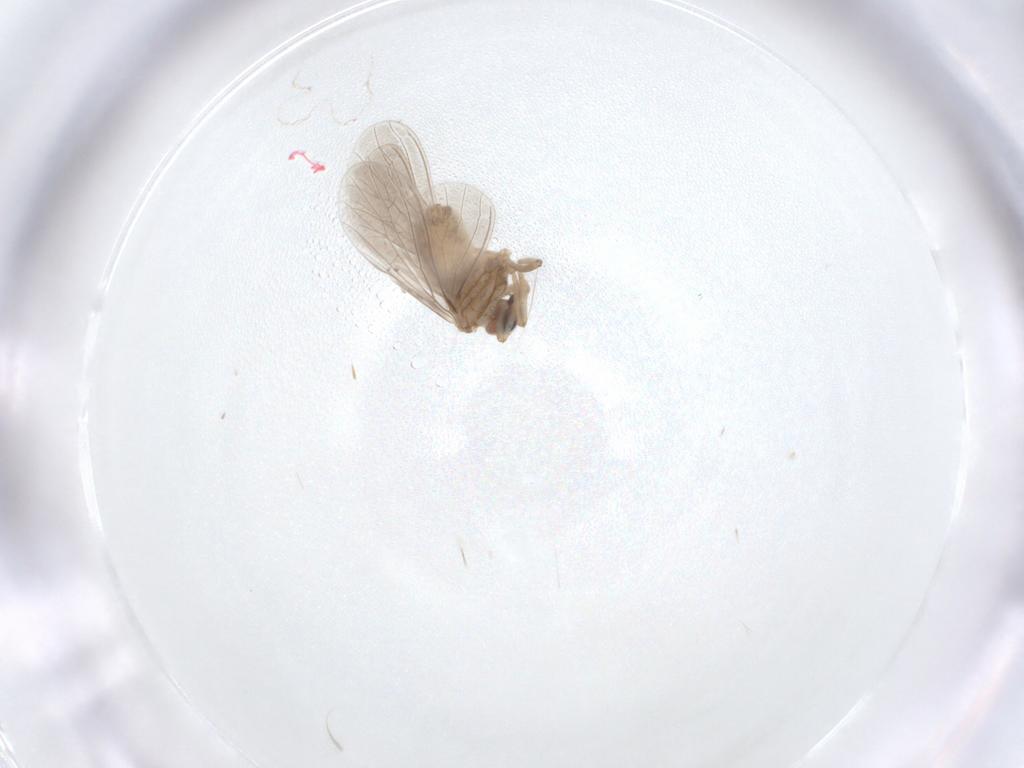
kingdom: Animalia
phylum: Arthropoda
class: Insecta
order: Neuroptera
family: Coniopterygidae
